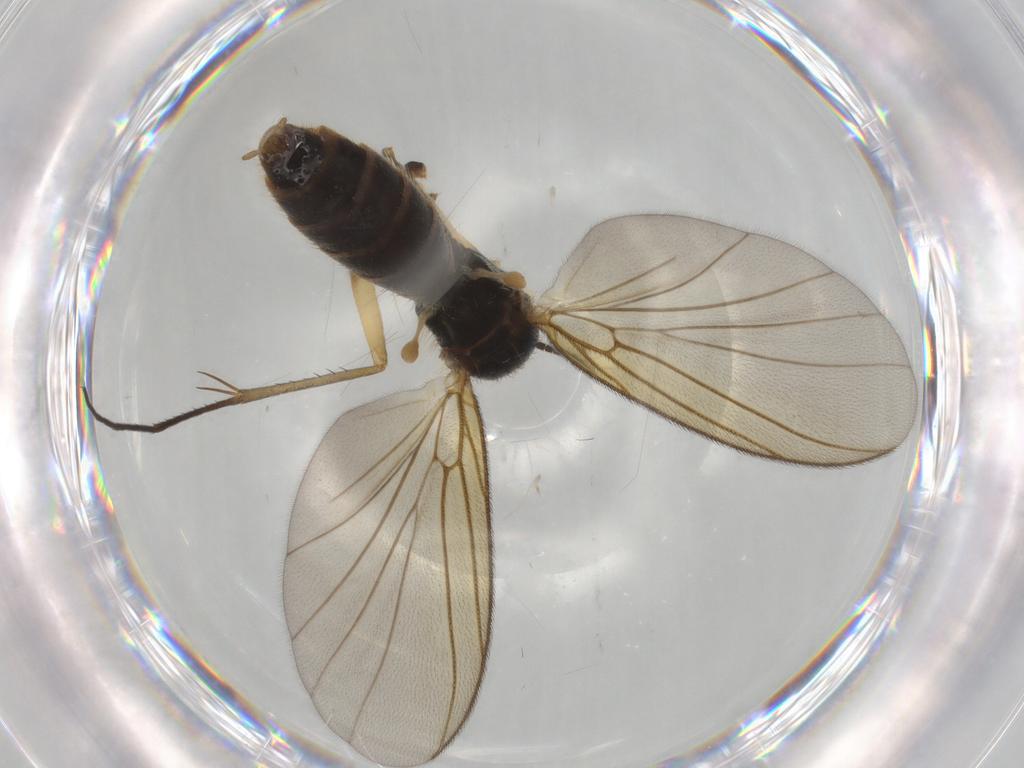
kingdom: Animalia
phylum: Arthropoda
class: Insecta
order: Diptera
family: Mycetophilidae
